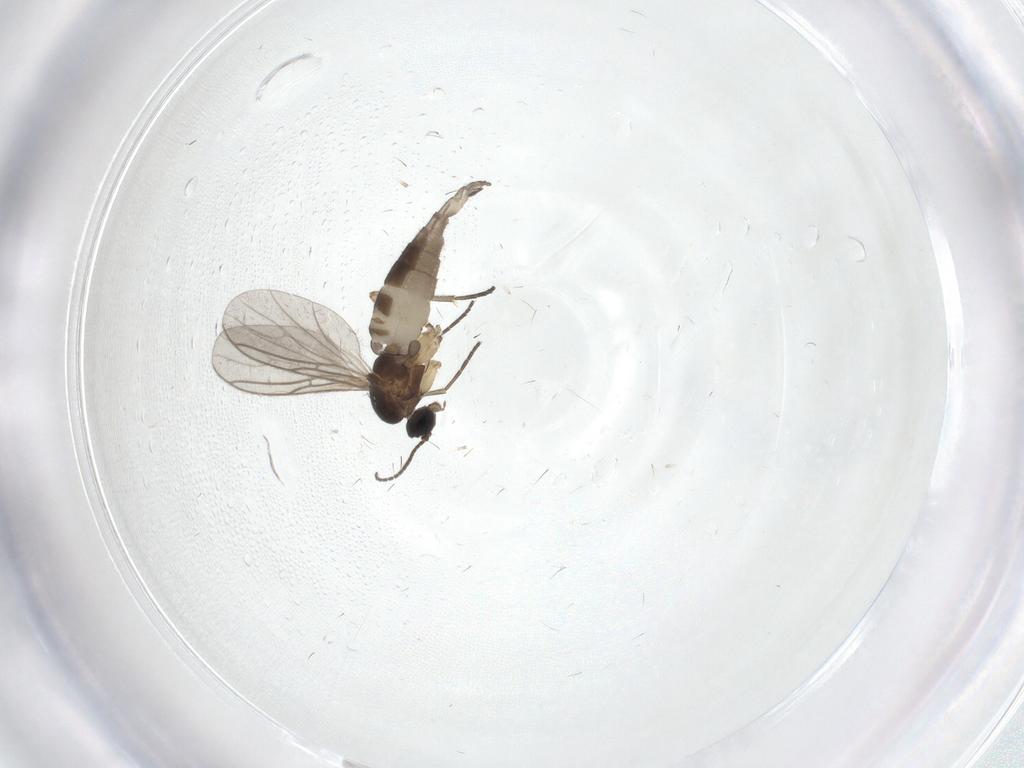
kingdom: Animalia
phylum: Arthropoda
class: Insecta
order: Diptera
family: Sciaridae
